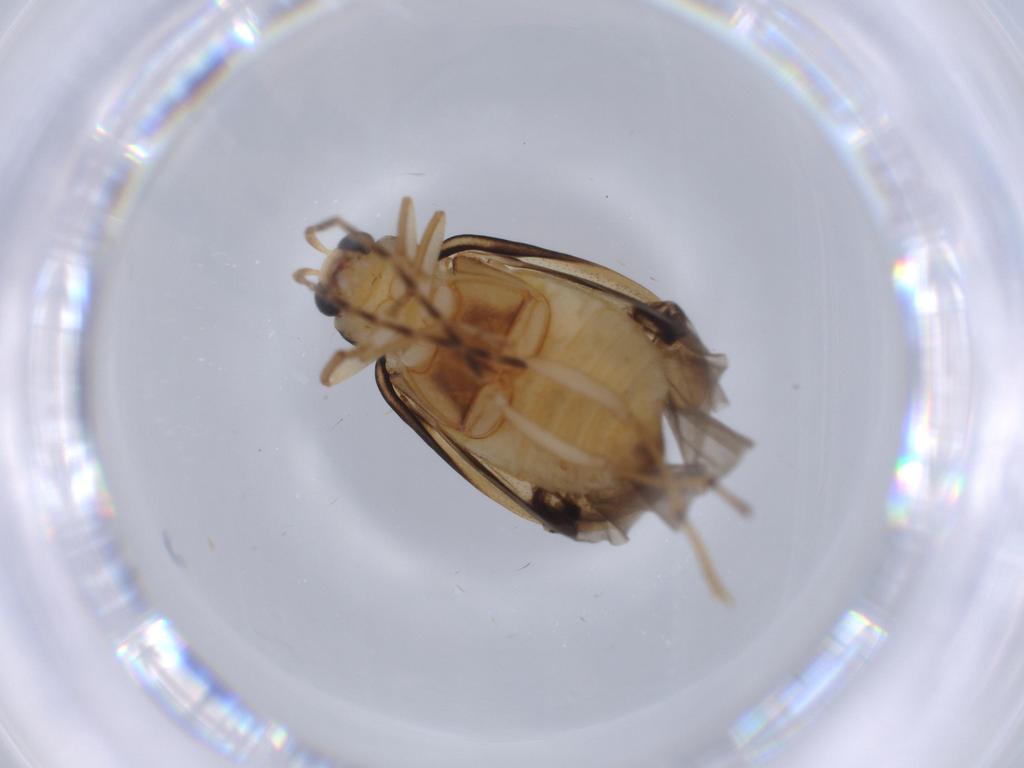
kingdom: Animalia
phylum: Arthropoda
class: Insecta
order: Coleoptera
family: Chrysomelidae
